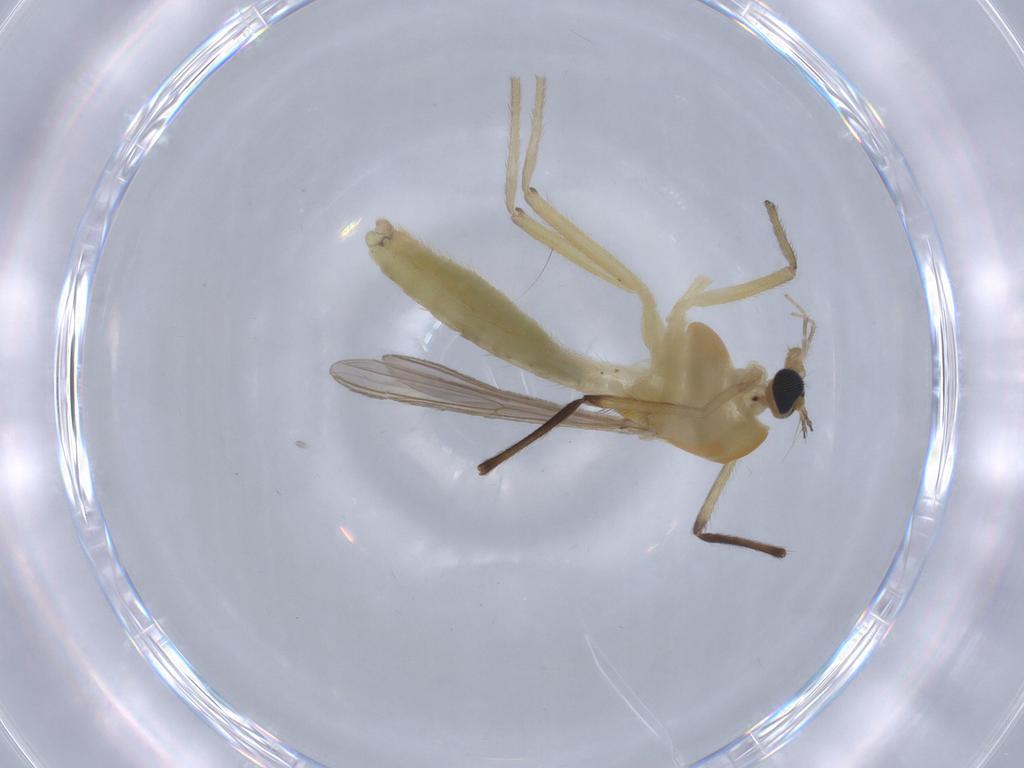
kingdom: Animalia
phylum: Arthropoda
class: Insecta
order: Diptera
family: Chironomidae
